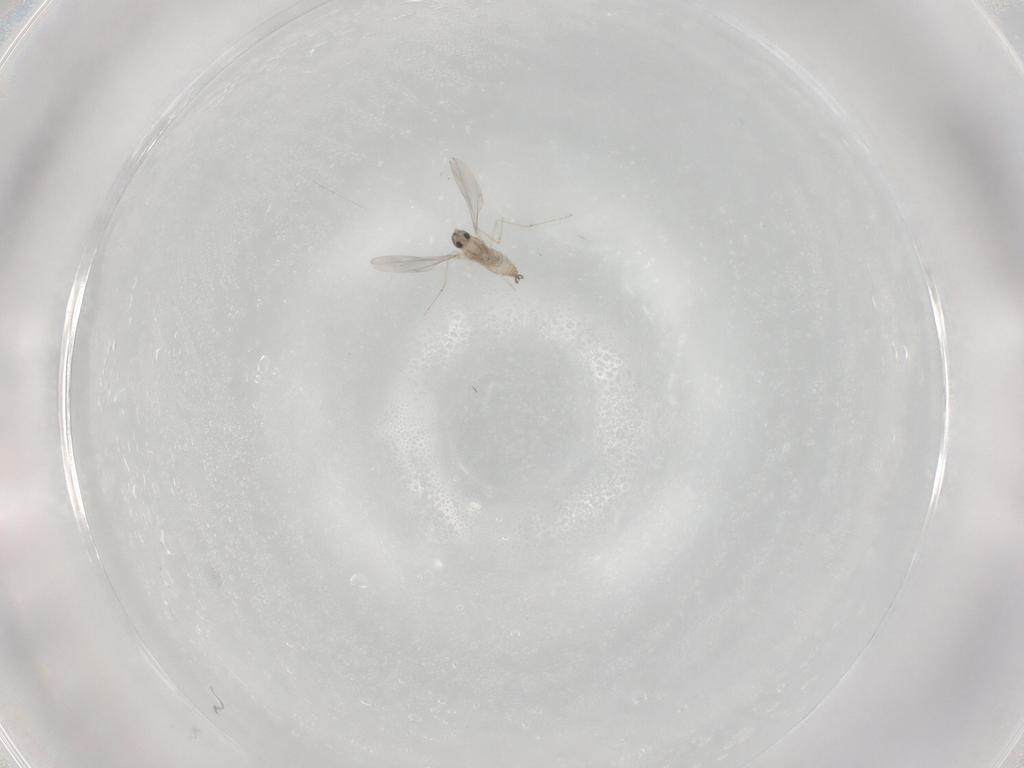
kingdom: Animalia
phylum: Arthropoda
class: Insecta
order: Diptera
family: Cecidomyiidae
